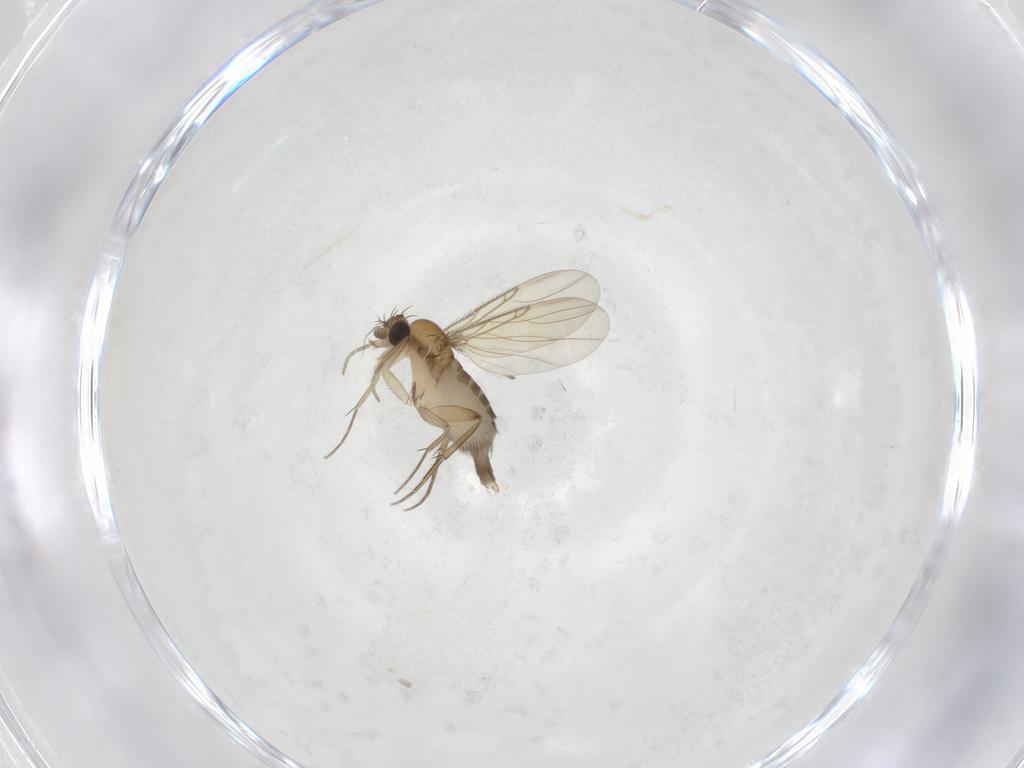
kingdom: Animalia
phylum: Arthropoda
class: Insecta
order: Diptera
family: Phoridae
